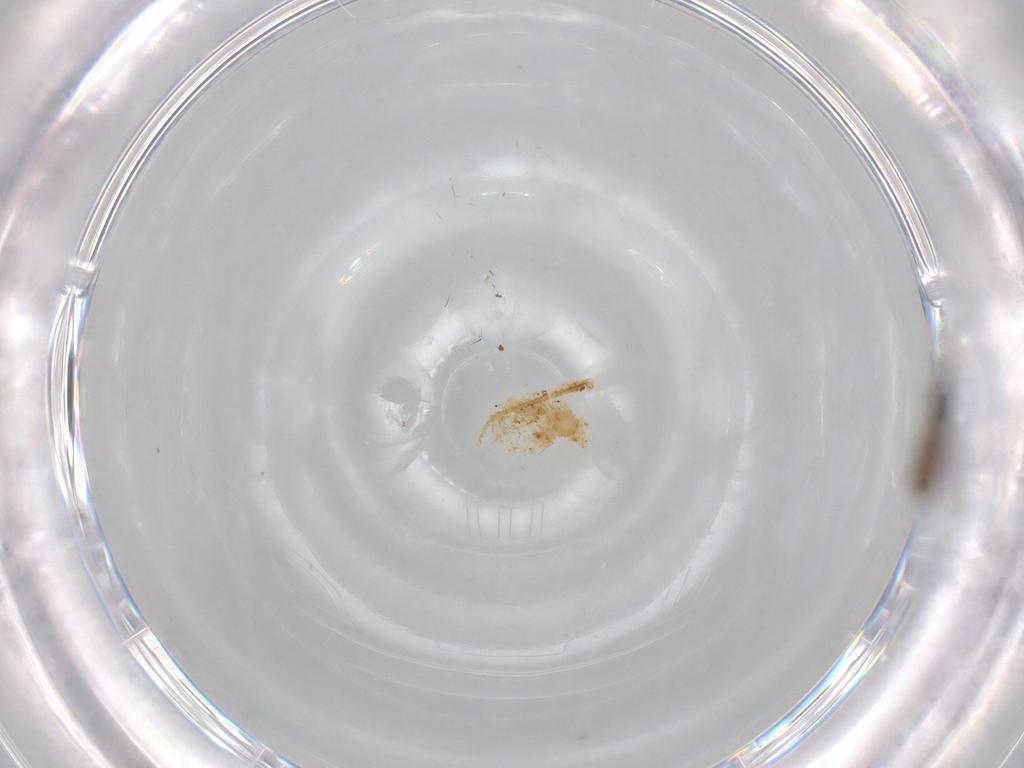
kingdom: Animalia
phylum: Arthropoda
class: Insecta
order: Diptera
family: Mycetophilidae
